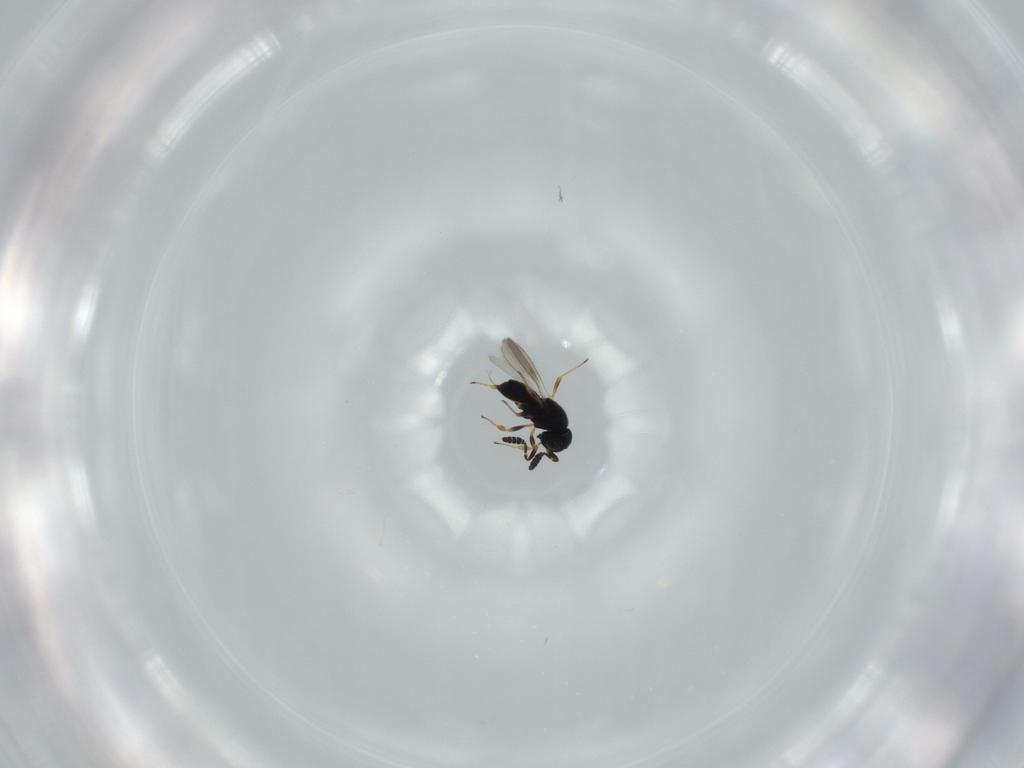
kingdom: Animalia
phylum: Arthropoda
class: Insecta
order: Hymenoptera
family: Scelionidae
